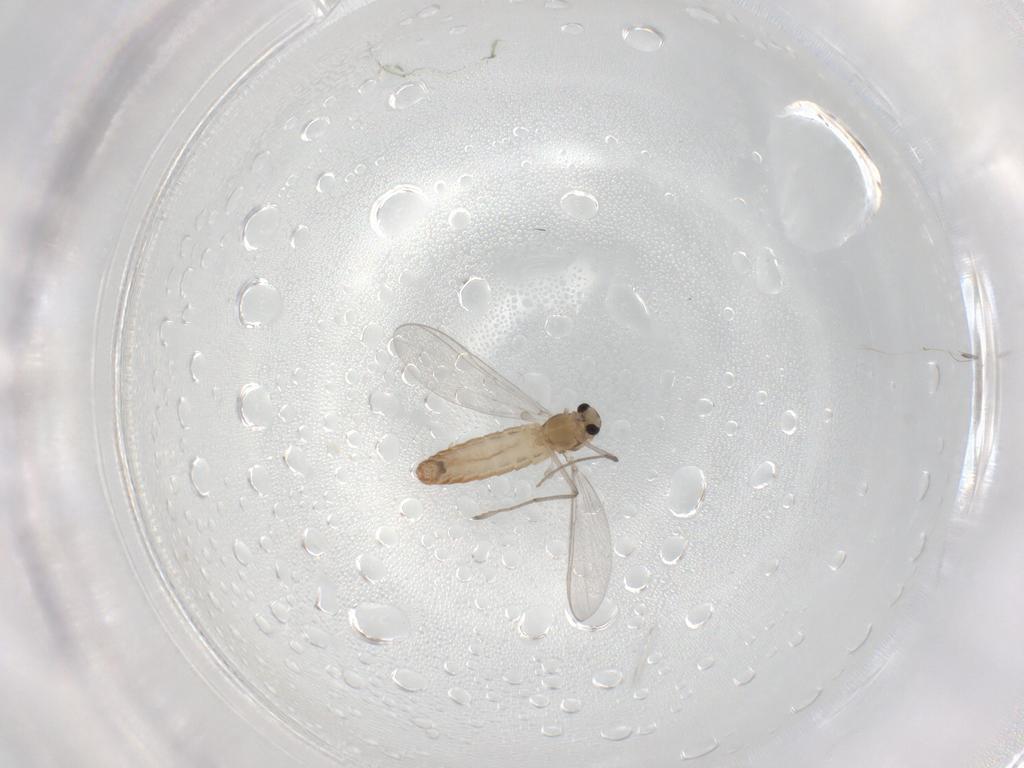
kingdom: Animalia
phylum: Arthropoda
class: Insecta
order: Diptera
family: Chironomidae
